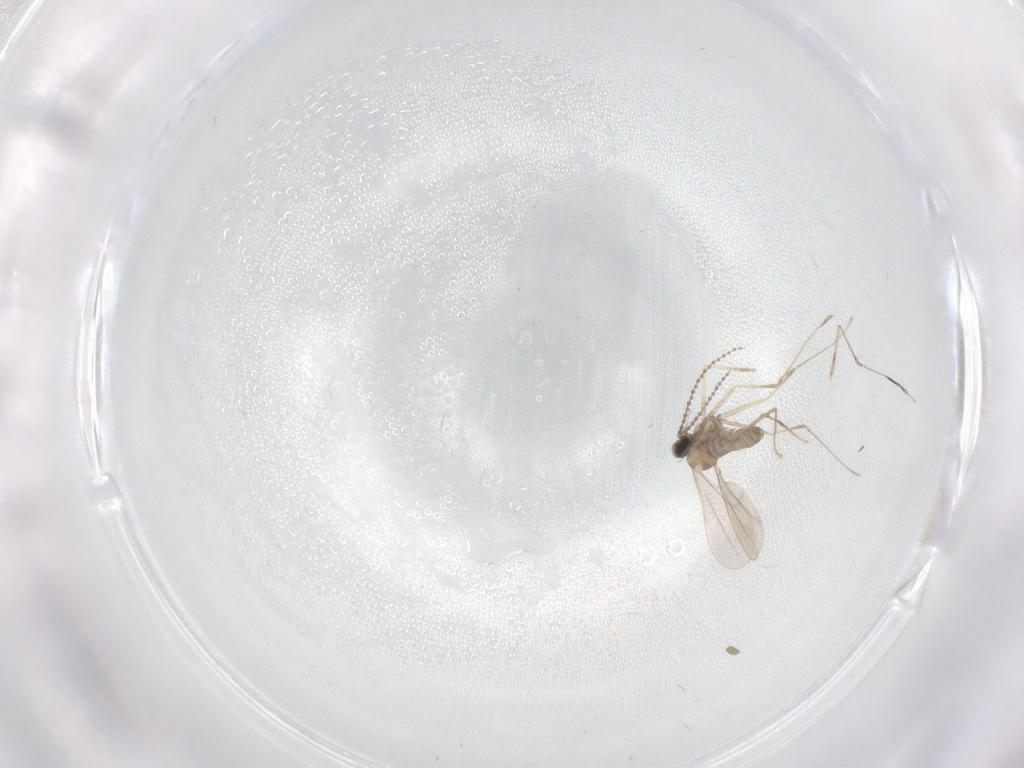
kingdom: Animalia
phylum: Arthropoda
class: Insecta
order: Diptera
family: Cecidomyiidae
